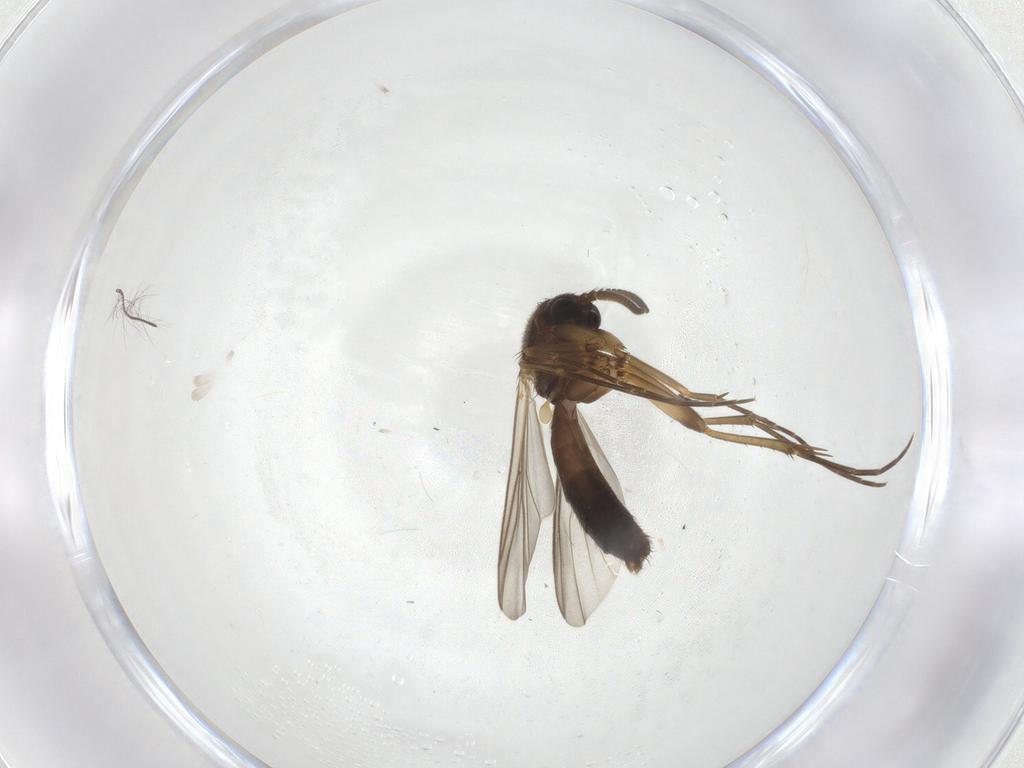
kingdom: Animalia
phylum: Arthropoda
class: Insecta
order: Diptera
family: Mycetophilidae
